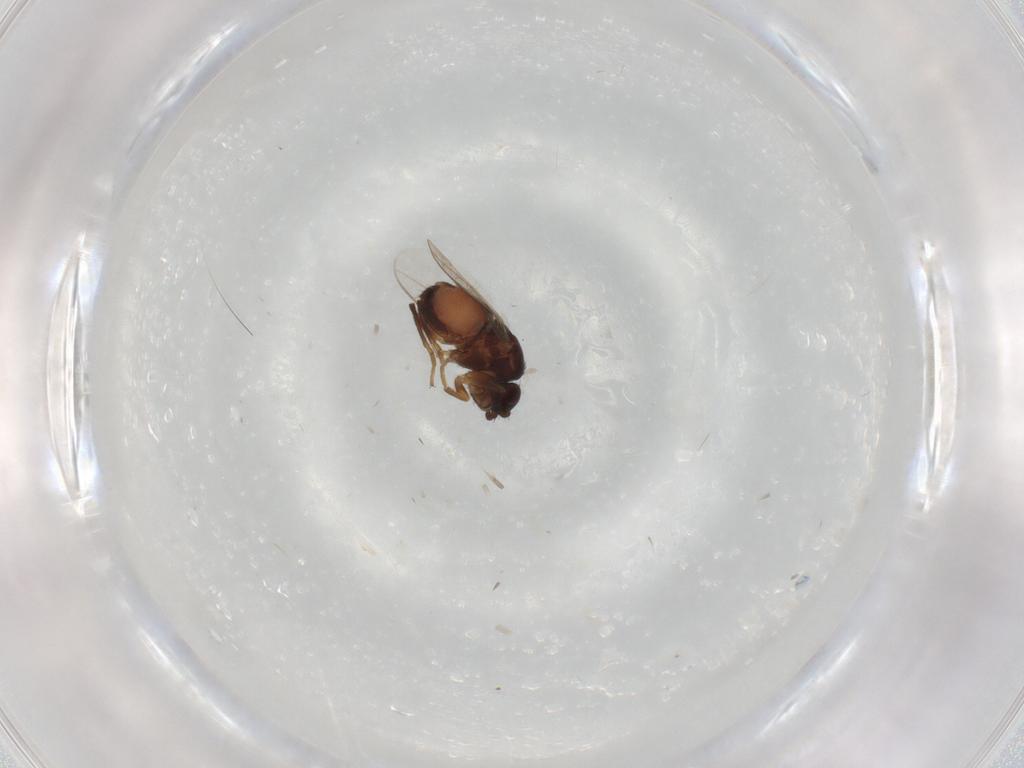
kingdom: Animalia
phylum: Arthropoda
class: Insecta
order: Diptera
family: Sphaeroceridae
